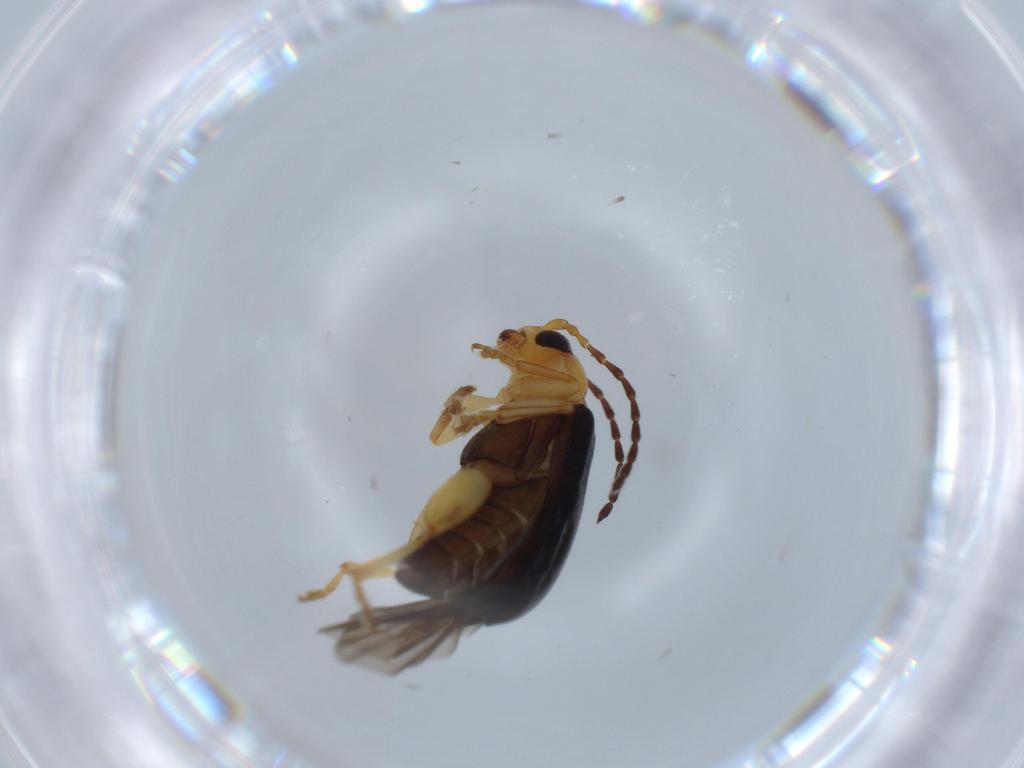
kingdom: Animalia
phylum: Arthropoda
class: Insecta
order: Coleoptera
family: Chrysomelidae
